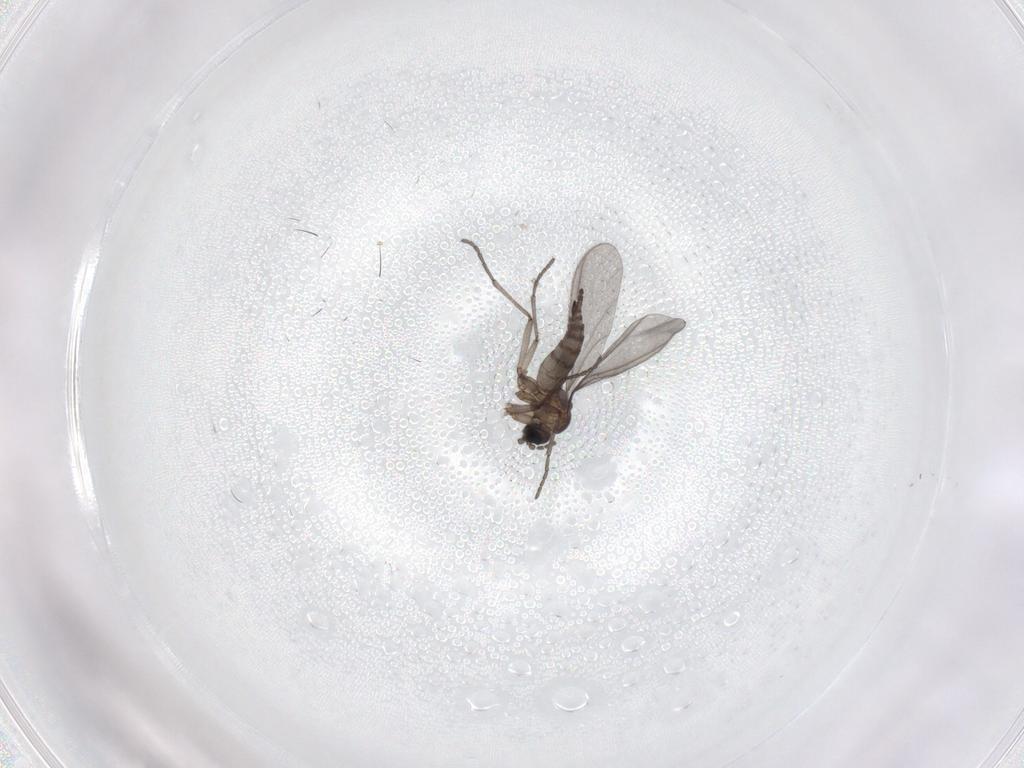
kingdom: Animalia
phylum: Arthropoda
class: Insecta
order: Diptera
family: Sciaridae
